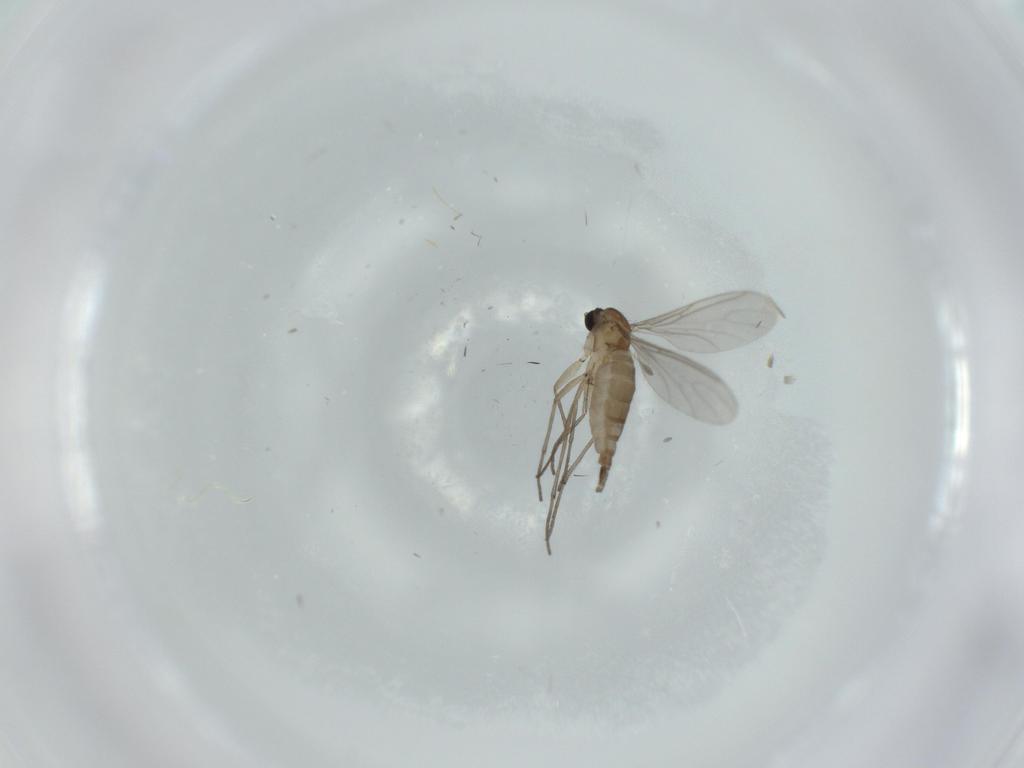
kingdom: Animalia
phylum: Arthropoda
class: Insecta
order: Diptera
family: Sciaridae
